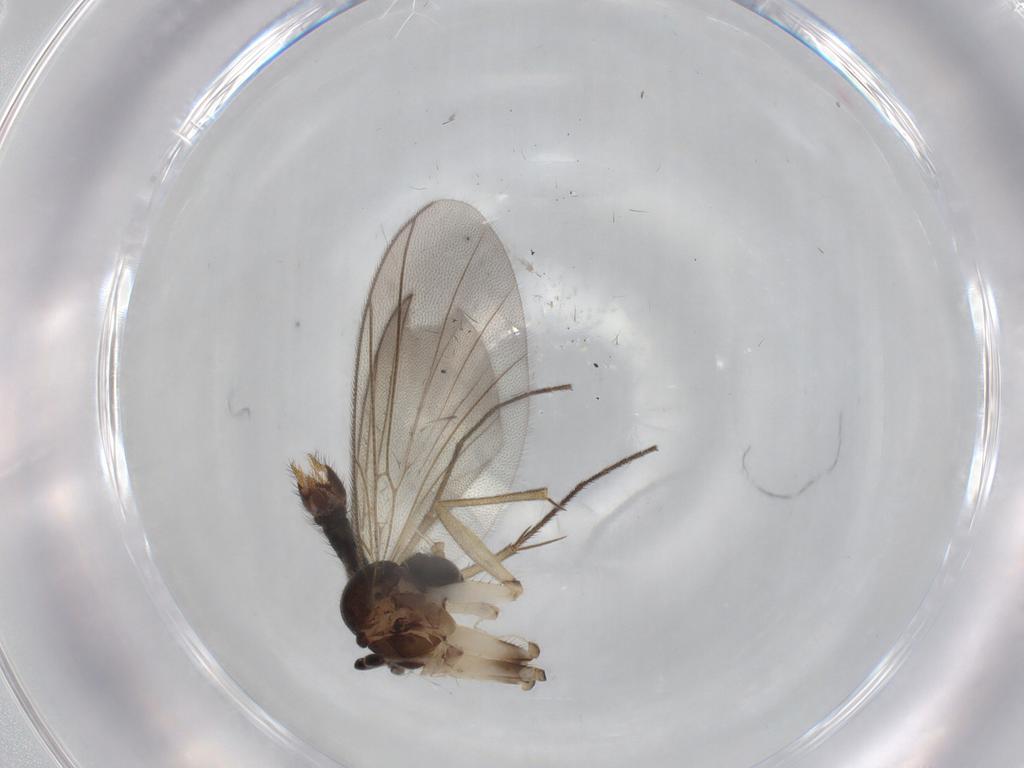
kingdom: Animalia
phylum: Arthropoda
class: Insecta
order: Diptera
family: Mycetophilidae
